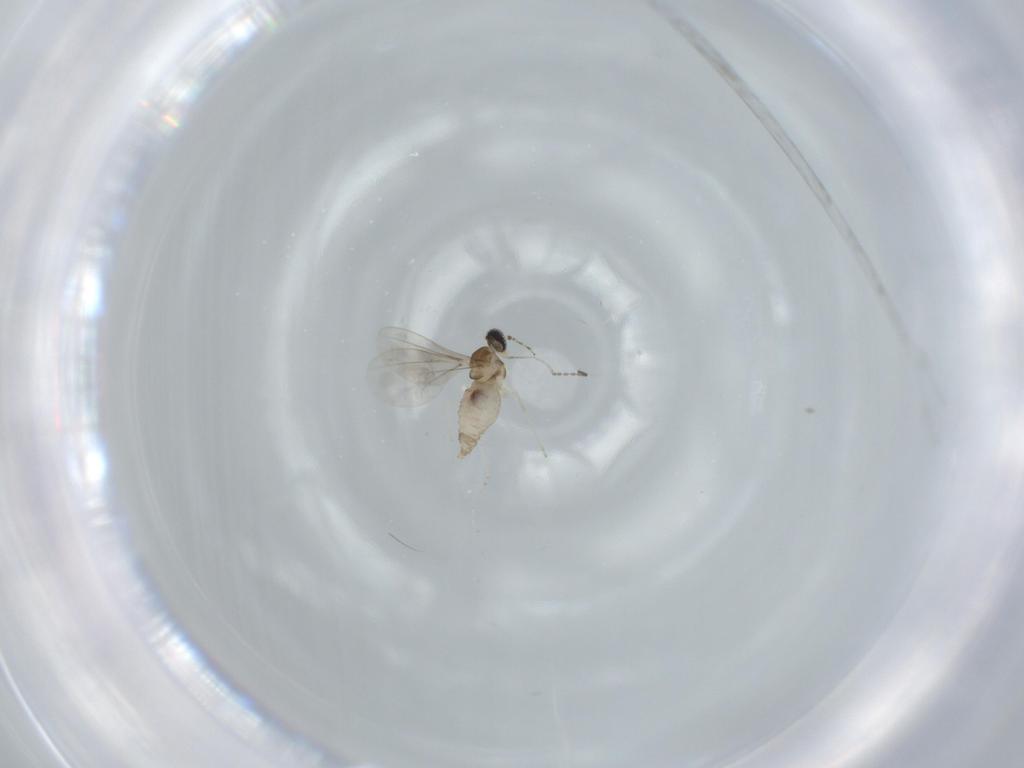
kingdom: Animalia
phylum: Arthropoda
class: Insecta
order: Diptera
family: Cecidomyiidae
